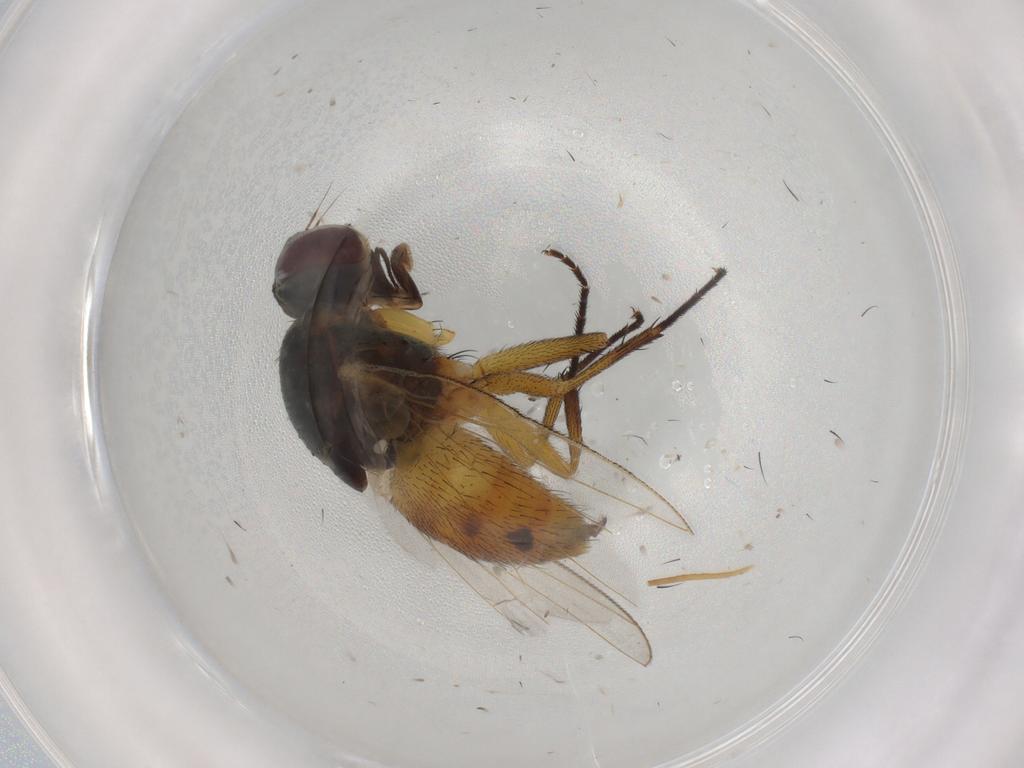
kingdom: Animalia
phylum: Arthropoda
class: Insecta
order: Diptera
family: Muscidae
